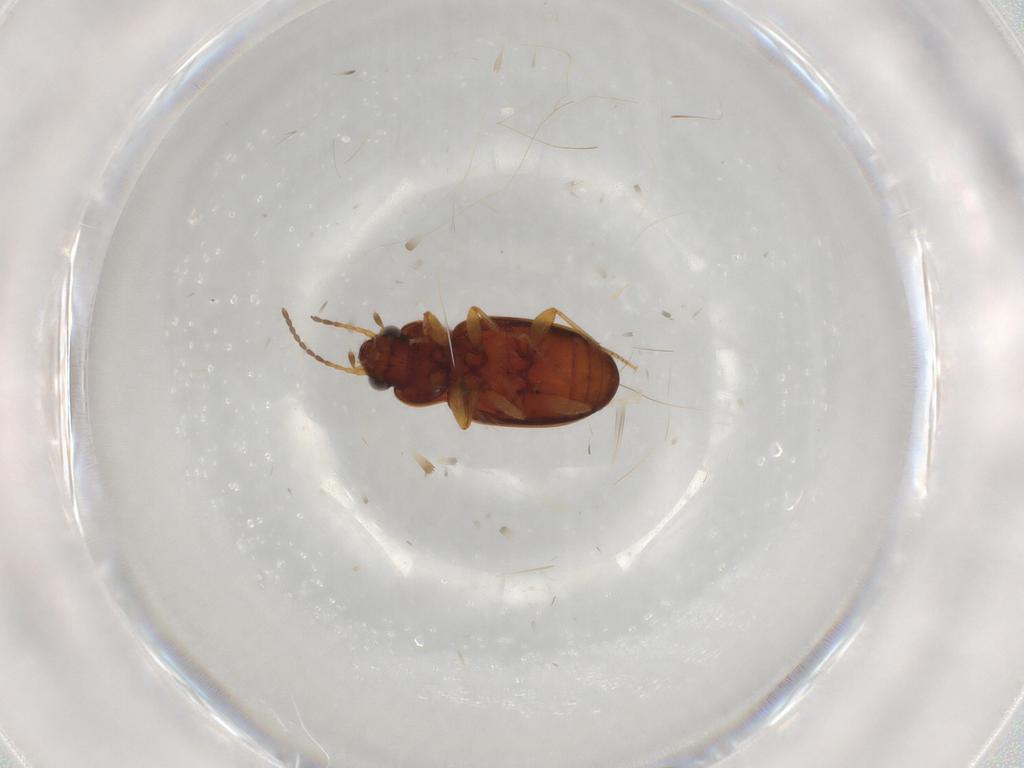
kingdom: Animalia
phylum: Arthropoda
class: Insecta
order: Coleoptera
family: Carabidae
